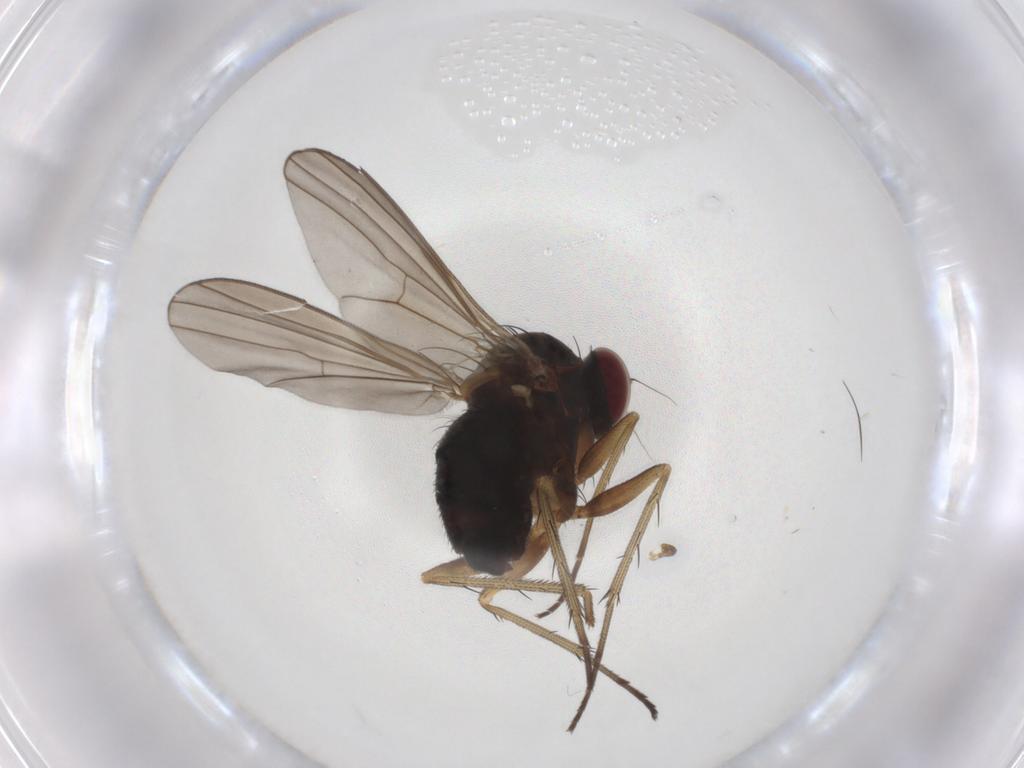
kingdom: Animalia
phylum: Arthropoda
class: Insecta
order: Diptera
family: Dolichopodidae
